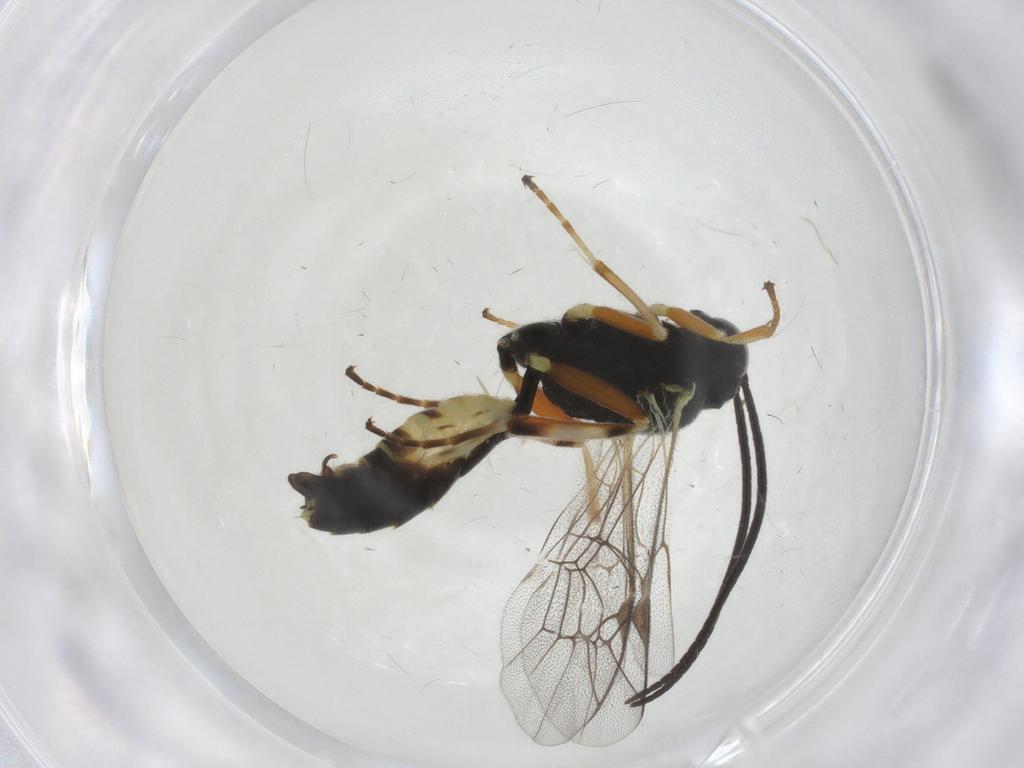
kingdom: Animalia
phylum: Arthropoda
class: Insecta
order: Hymenoptera
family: Ichneumonidae
